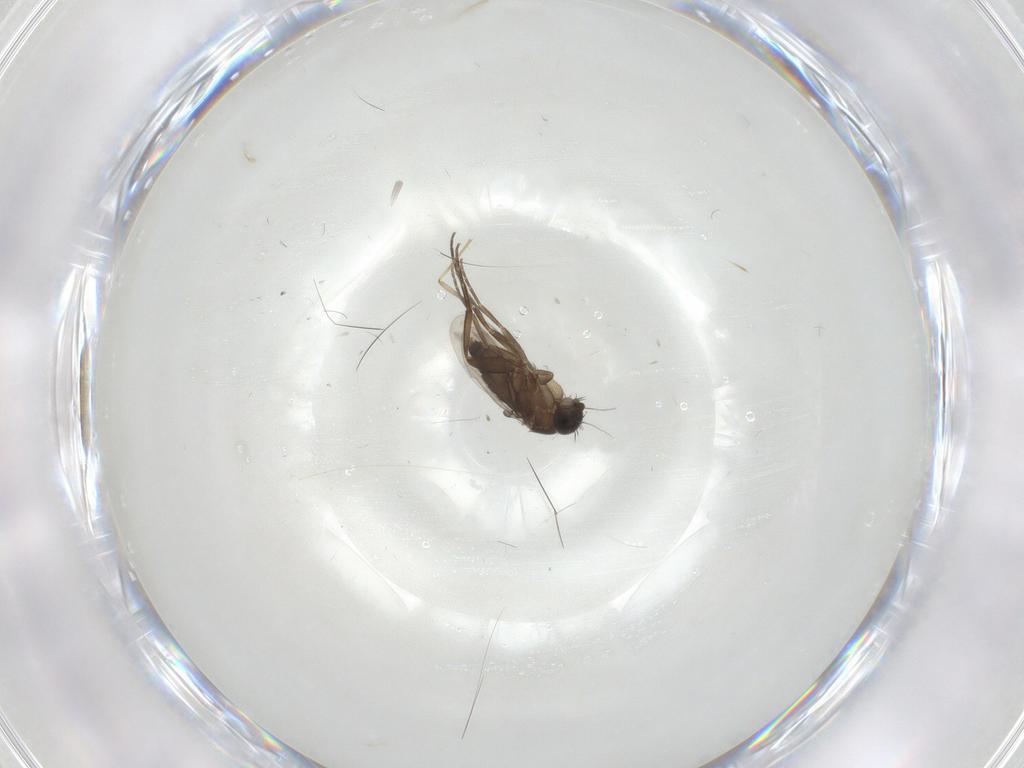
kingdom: Animalia
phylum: Arthropoda
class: Insecta
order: Diptera
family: Phoridae
